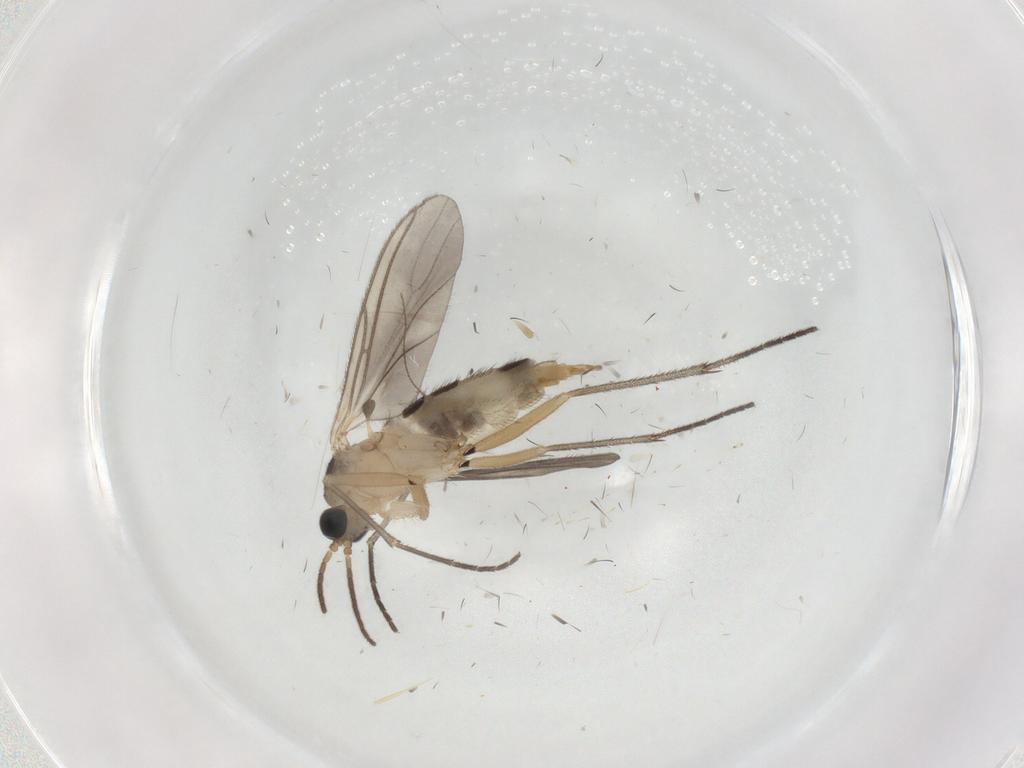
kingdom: Animalia
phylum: Arthropoda
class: Insecta
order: Diptera
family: Sciaridae
